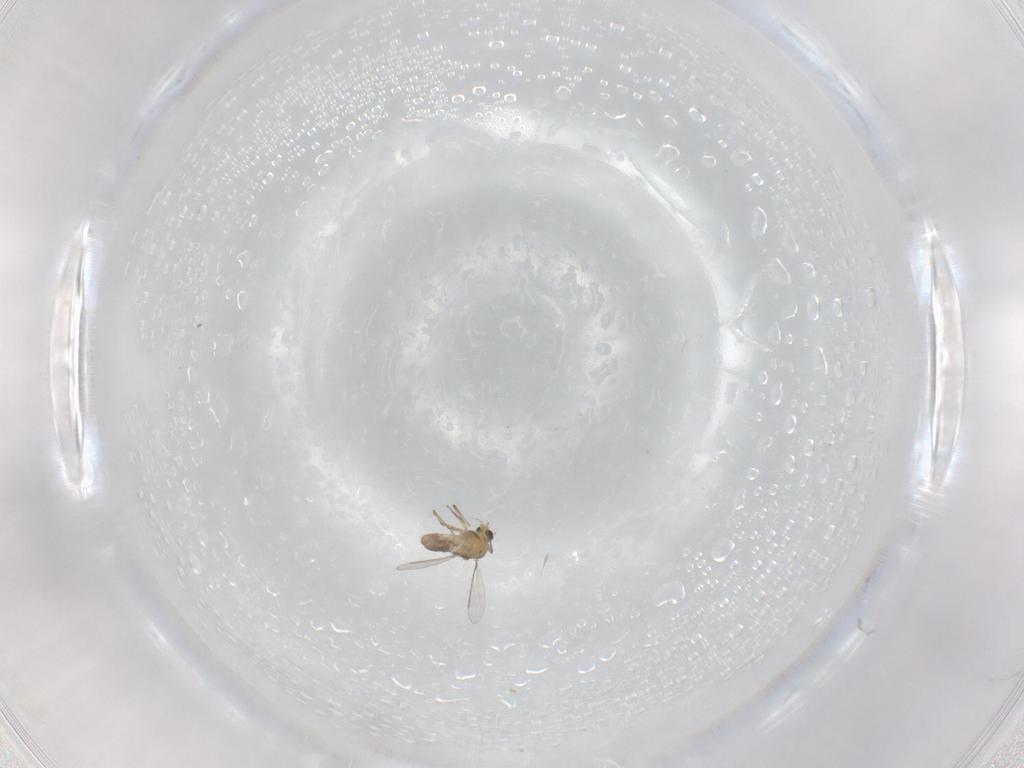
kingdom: Animalia
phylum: Arthropoda
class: Insecta
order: Diptera
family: Chironomidae
